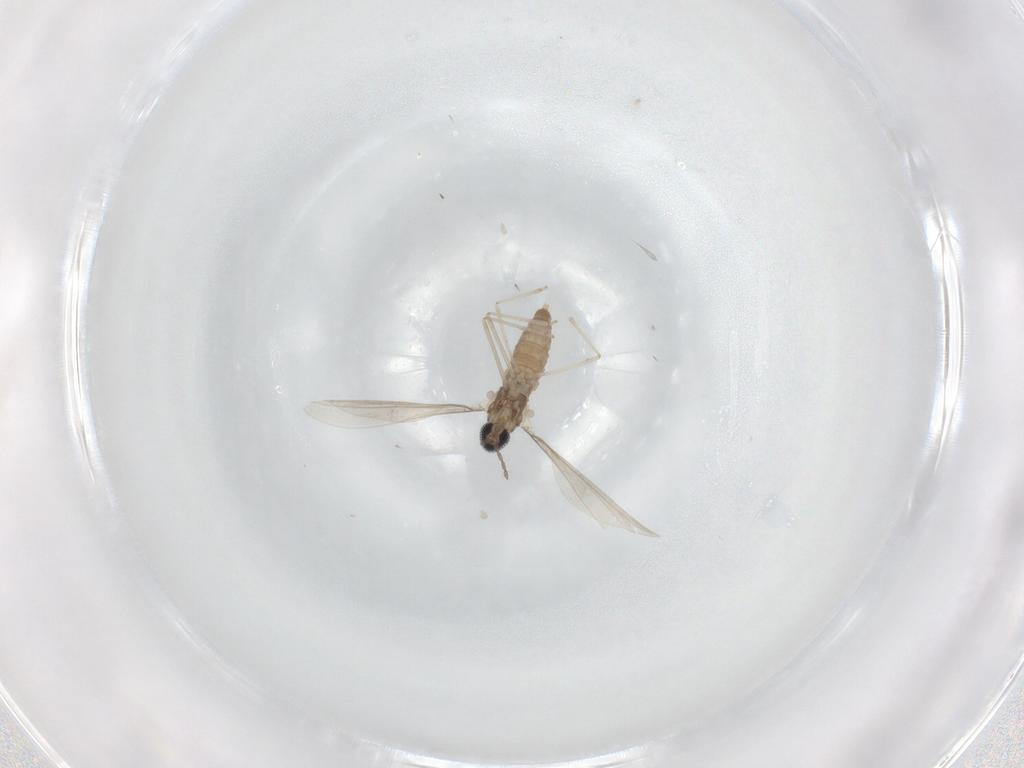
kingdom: Animalia
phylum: Arthropoda
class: Insecta
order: Diptera
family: Cecidomyiidae
